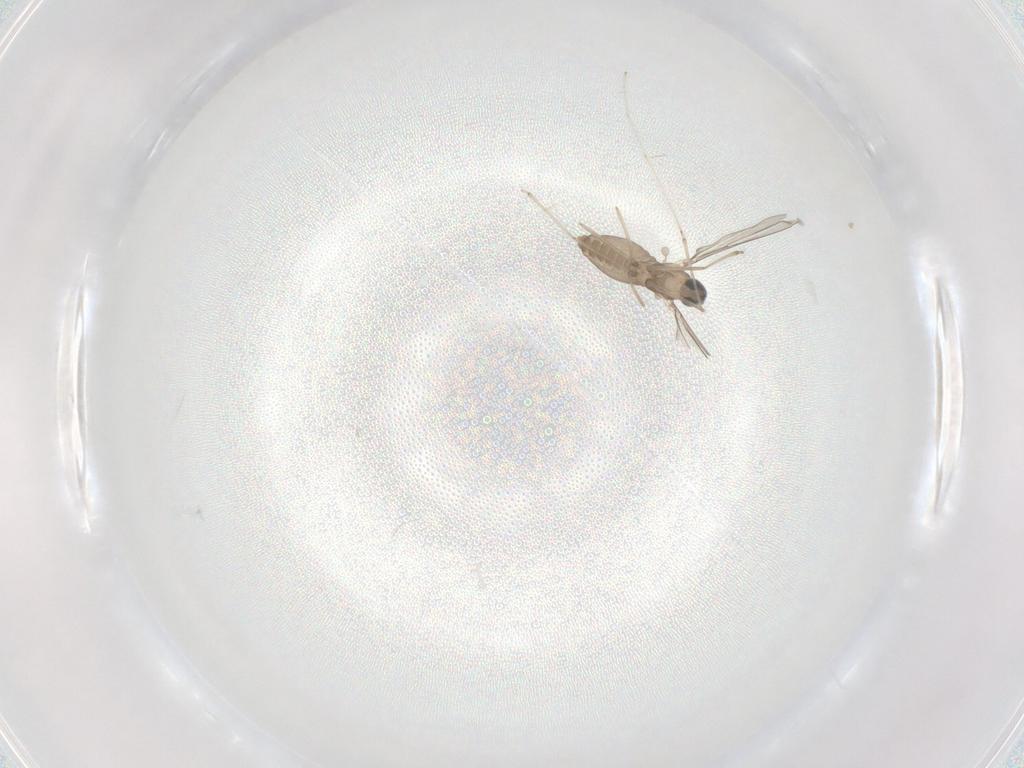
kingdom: Animalia
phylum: Arthropoda
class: Insecta
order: Diptera
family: Cecidomyiidae
